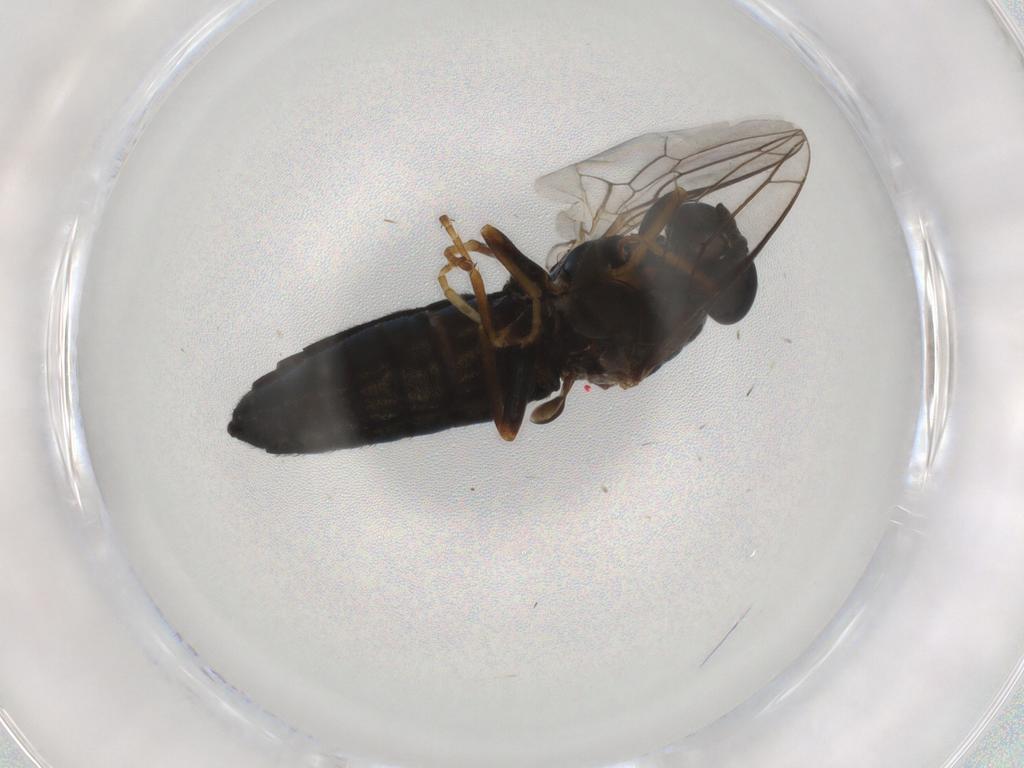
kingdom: Animalia
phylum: Arthropoda
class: Insecta
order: Diptera
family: Scenopinidae
